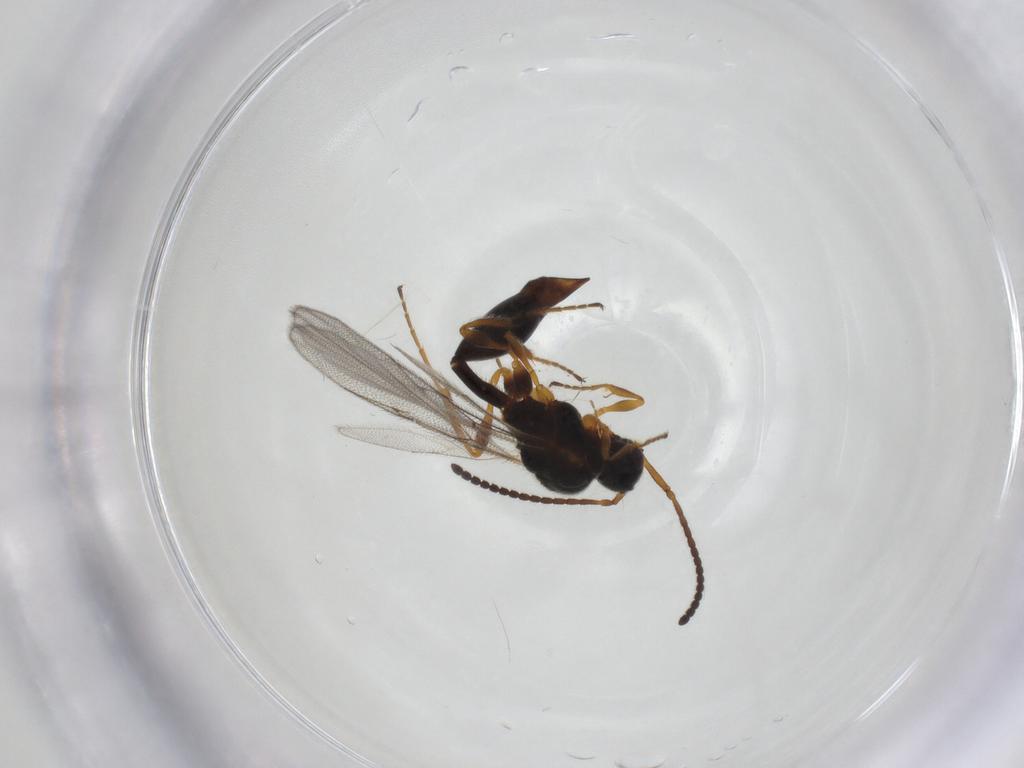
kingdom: Animalia
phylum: Arthropoda
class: Insecta
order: Hymenoptera
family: Diapriidae
